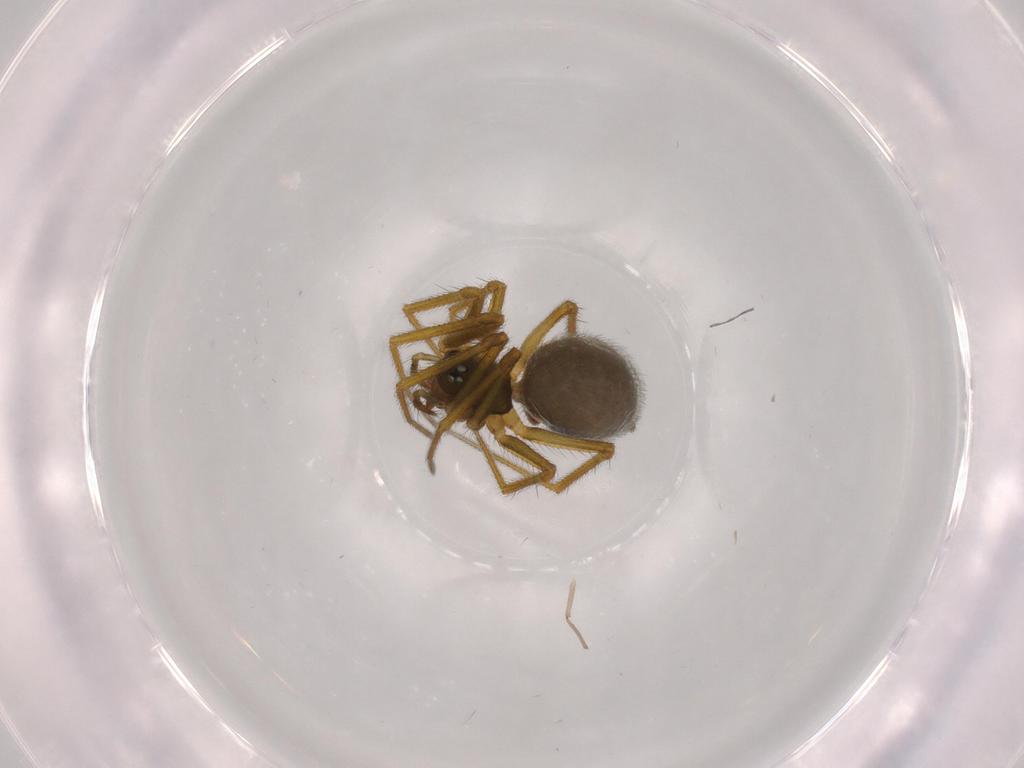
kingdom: Animalia
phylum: Arthropoda
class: Arachnida
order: Araneae
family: Linyphiidae
